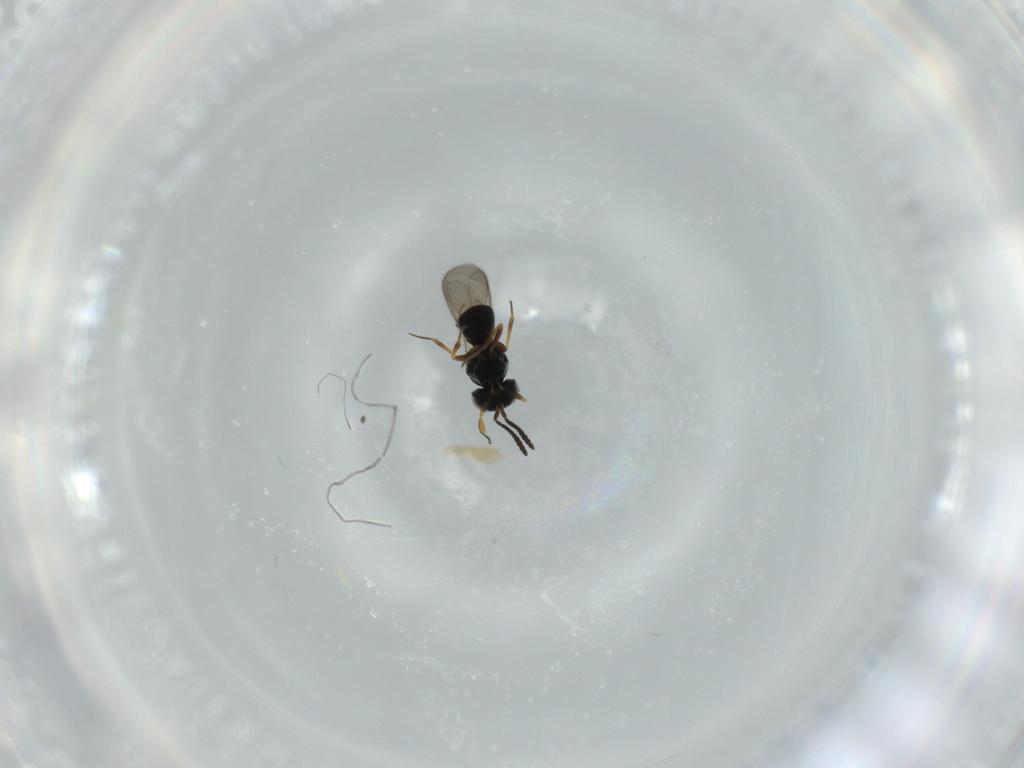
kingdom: Animalia
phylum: Arthropoda
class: Insecta
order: Hymenoptera
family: Scelionidae
